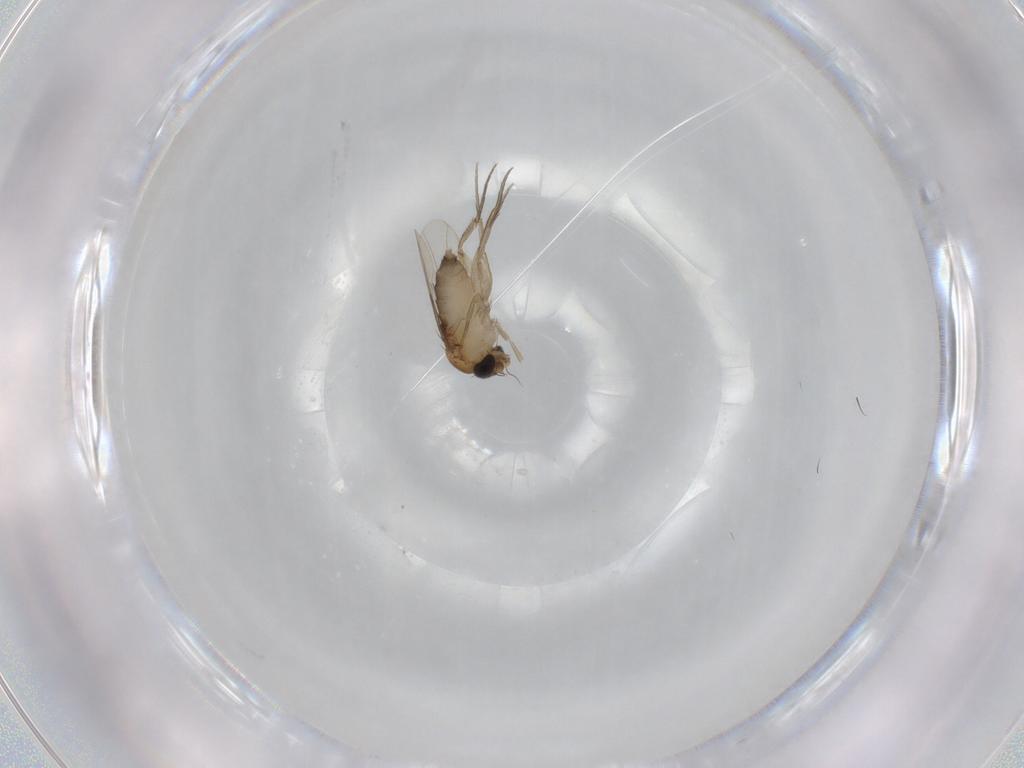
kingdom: Animalia
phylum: Arthropoda
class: Insecta
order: Diptera
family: Phoridae
